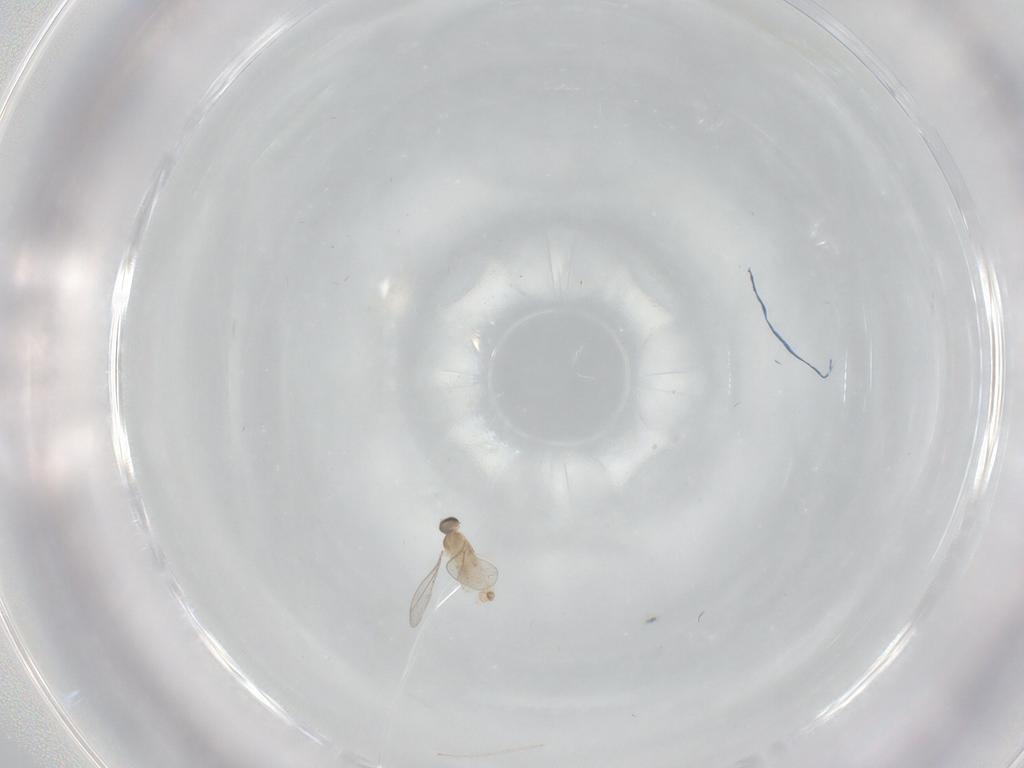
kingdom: Animalia
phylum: Arthropoda
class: Insecta
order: Diptera
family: Cecidomyiidae
